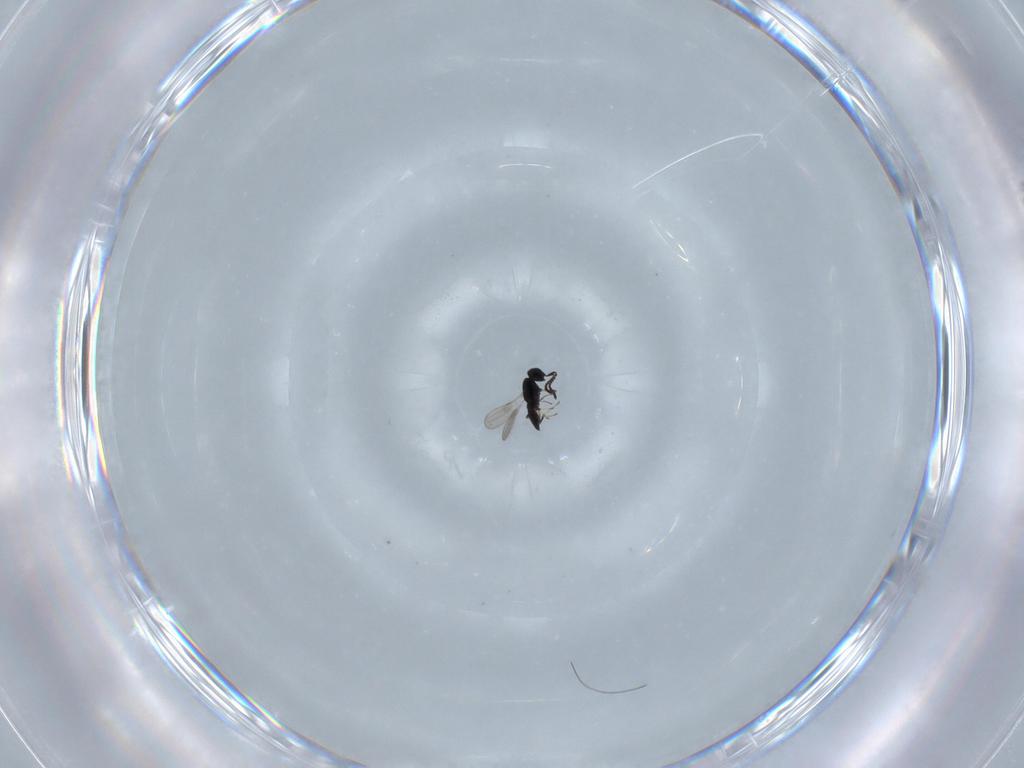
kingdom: Animalia
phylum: Arthropoda
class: Insecta
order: Hymenoptera
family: Scelionidae
